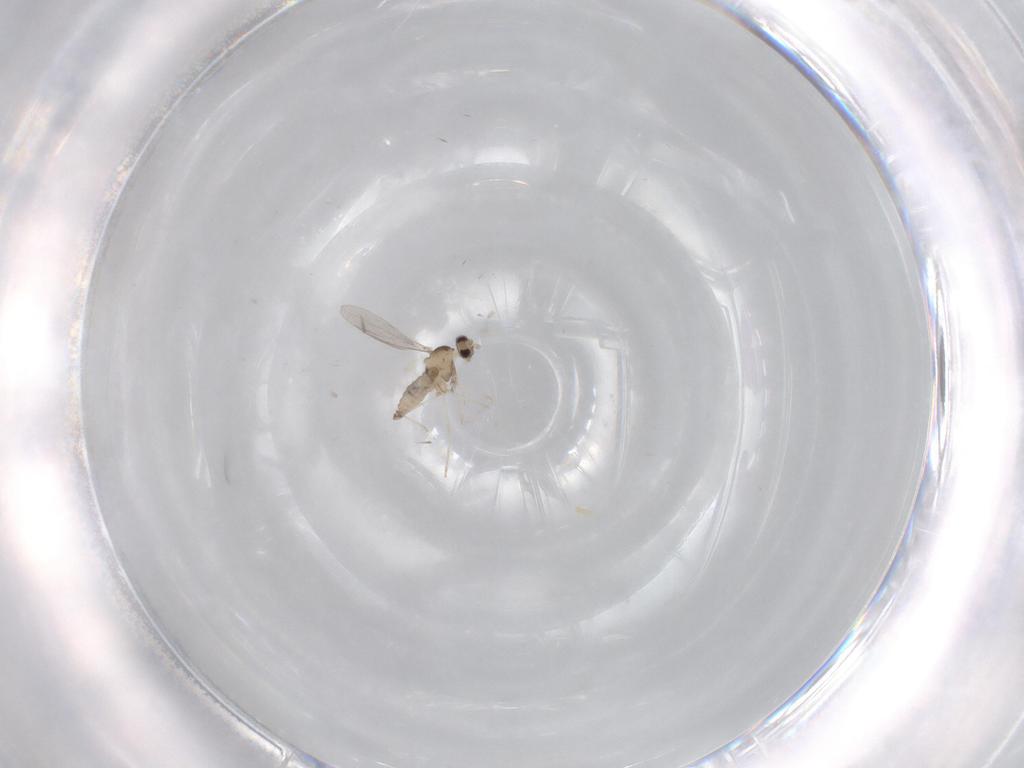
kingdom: Animalia
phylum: Arthropoda
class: Insecta
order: Diptera
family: Cecidomyiidae
